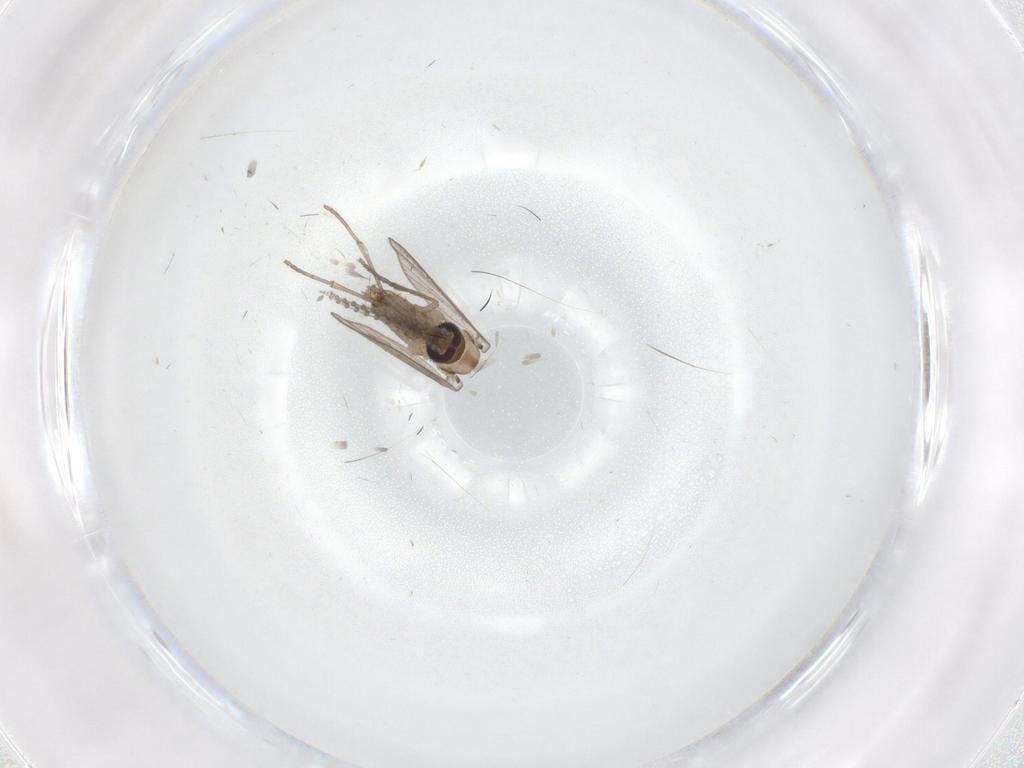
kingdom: Animalia
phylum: Arthropoda
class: Insecta
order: Diptera
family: Psychodidae
